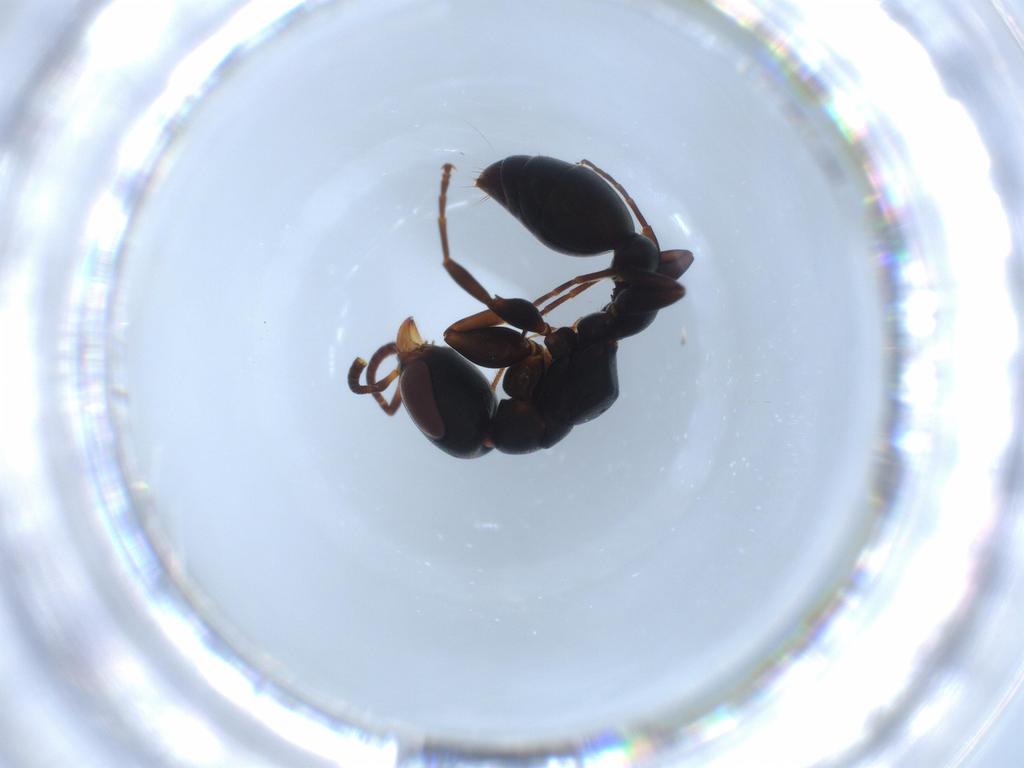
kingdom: Animalia
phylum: Arthropoda
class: Insecta
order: Hymenoptera
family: Formicidae
